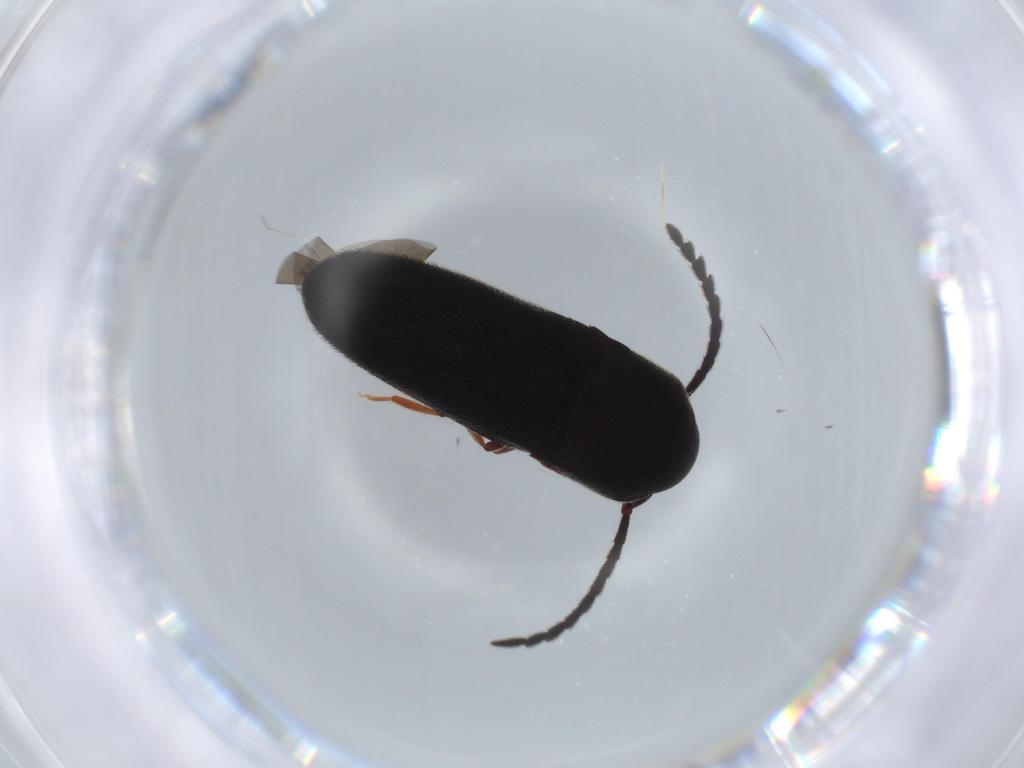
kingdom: Animalia
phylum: Arthropoda
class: Insecta
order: Coleoptera
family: Eucnemidae
